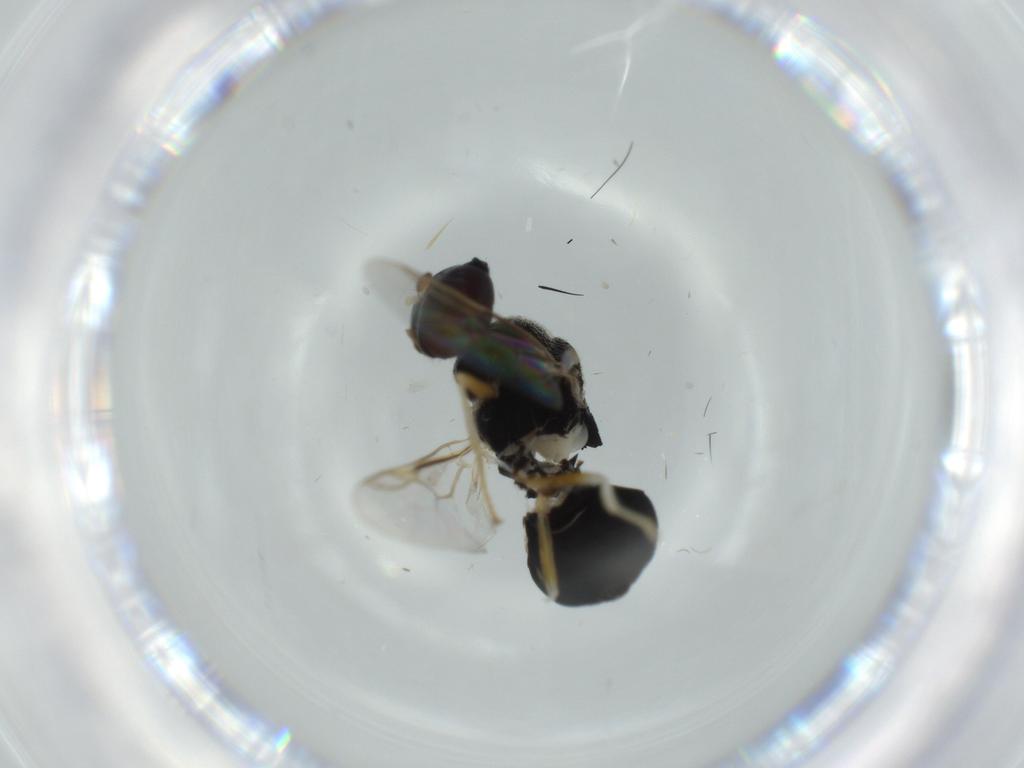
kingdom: Animalia
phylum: Arthropoda
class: Insecta
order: Diptera
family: Stratiomyidae
